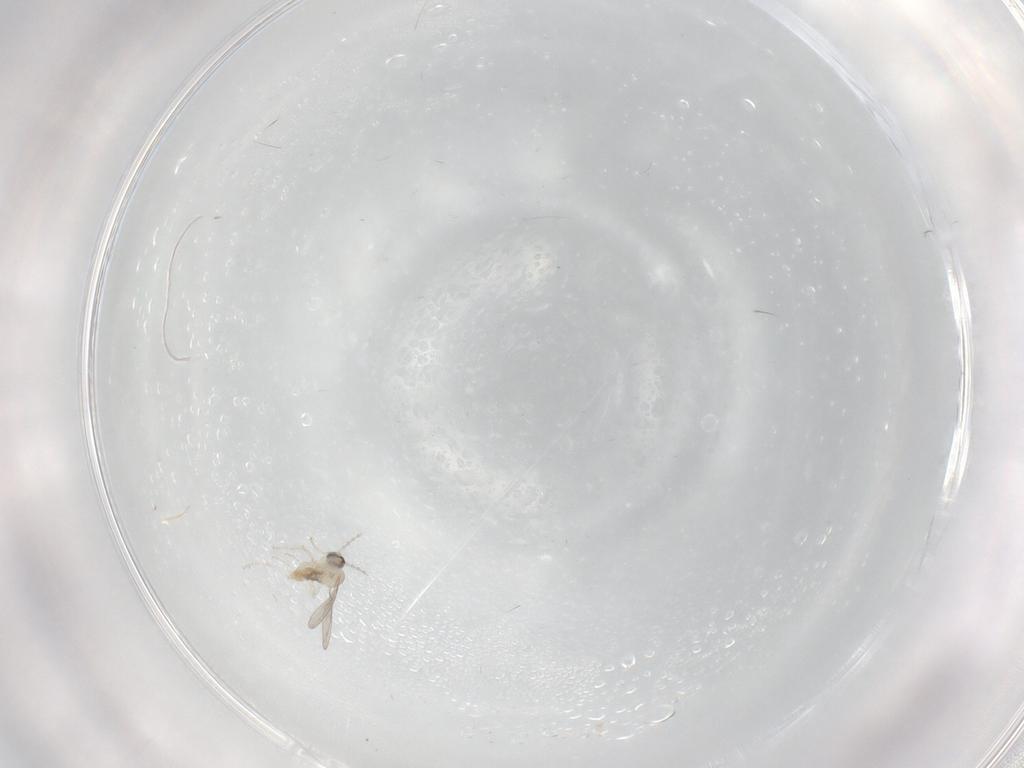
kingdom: Animalia
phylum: Arthropoda
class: Insecta
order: Diptera
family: Cecidomyiidae
